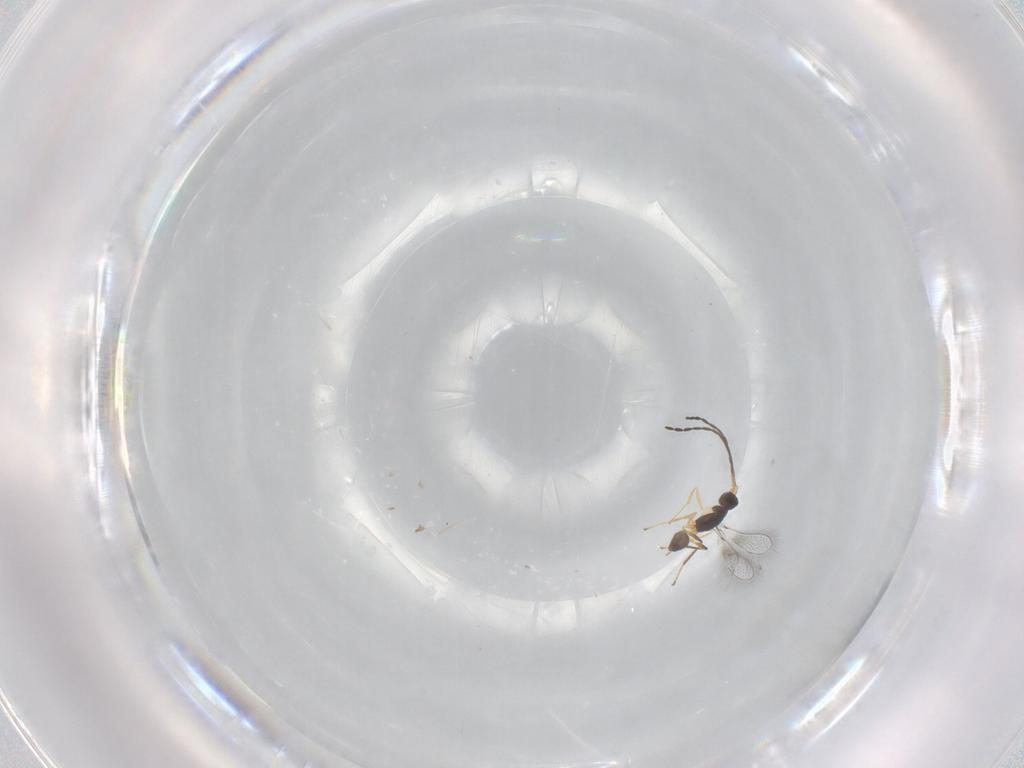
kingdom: Animalia
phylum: Arthropoda
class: Insecta
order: Hymenoptera
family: Mymaridae
